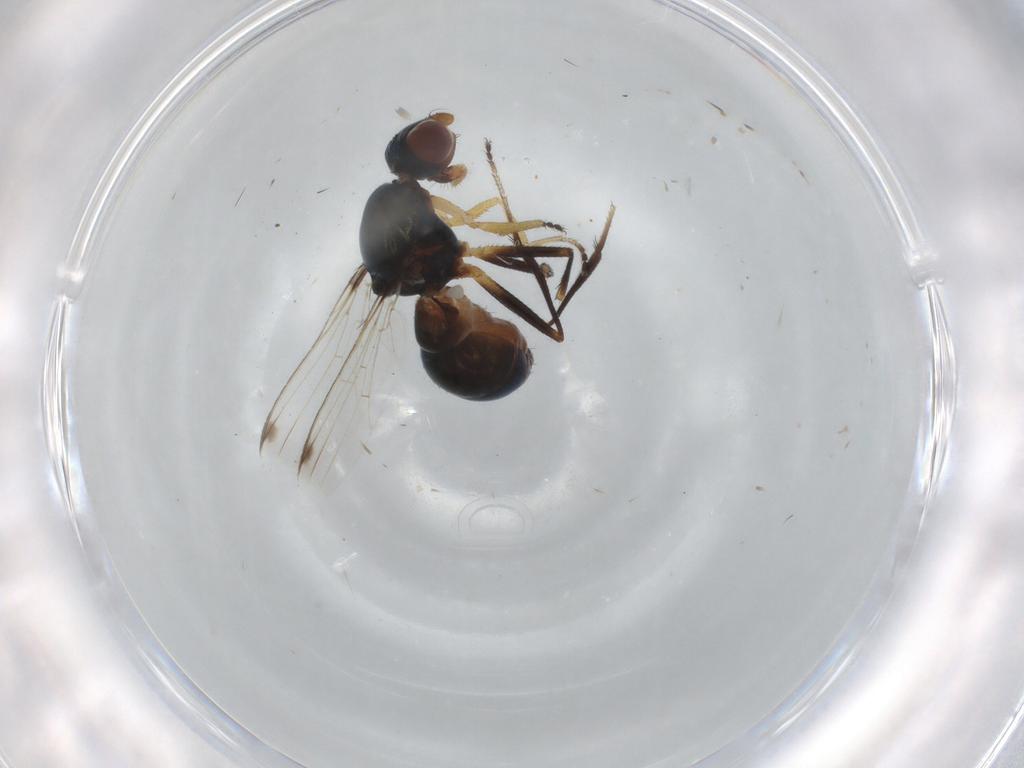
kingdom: Animalia
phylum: Arthropoda
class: Insecta
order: Diptera
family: Sepsidae
